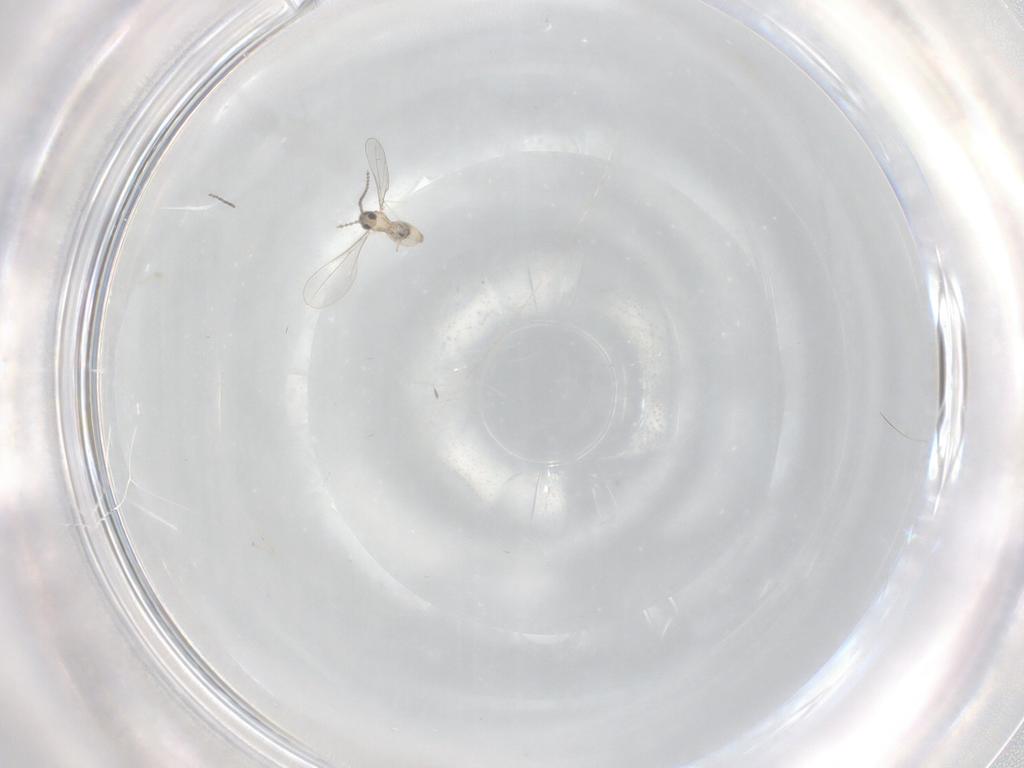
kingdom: Animalia
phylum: Arthropoda
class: Insecta
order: Diptera
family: Cecidomyiidae
